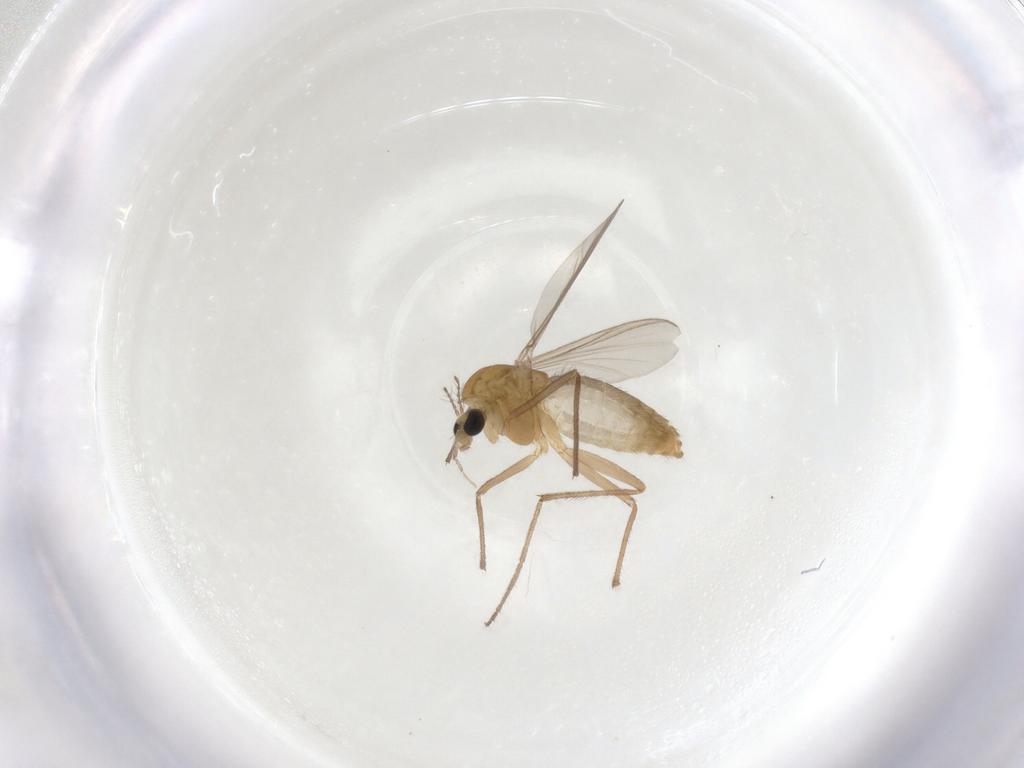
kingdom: Animalia
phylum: Arthropoda
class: Insecta
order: Diptera
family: Chironomidae
